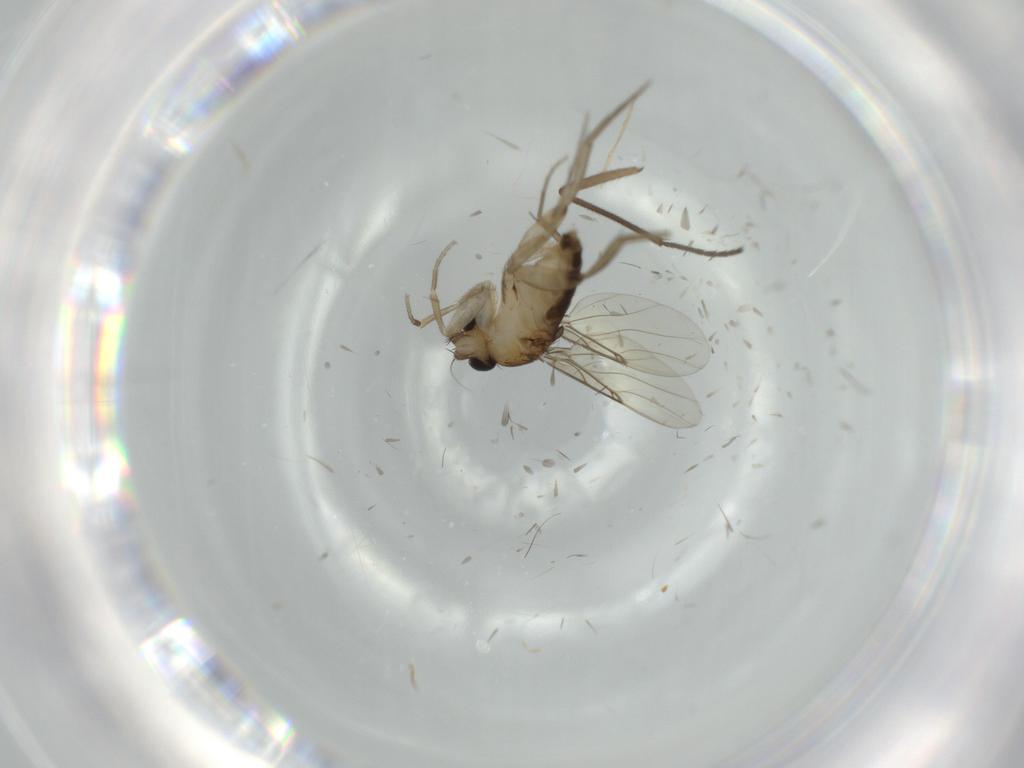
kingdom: Animalia
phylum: Arthropoda
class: Insecta
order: Diptera
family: Phoridae
